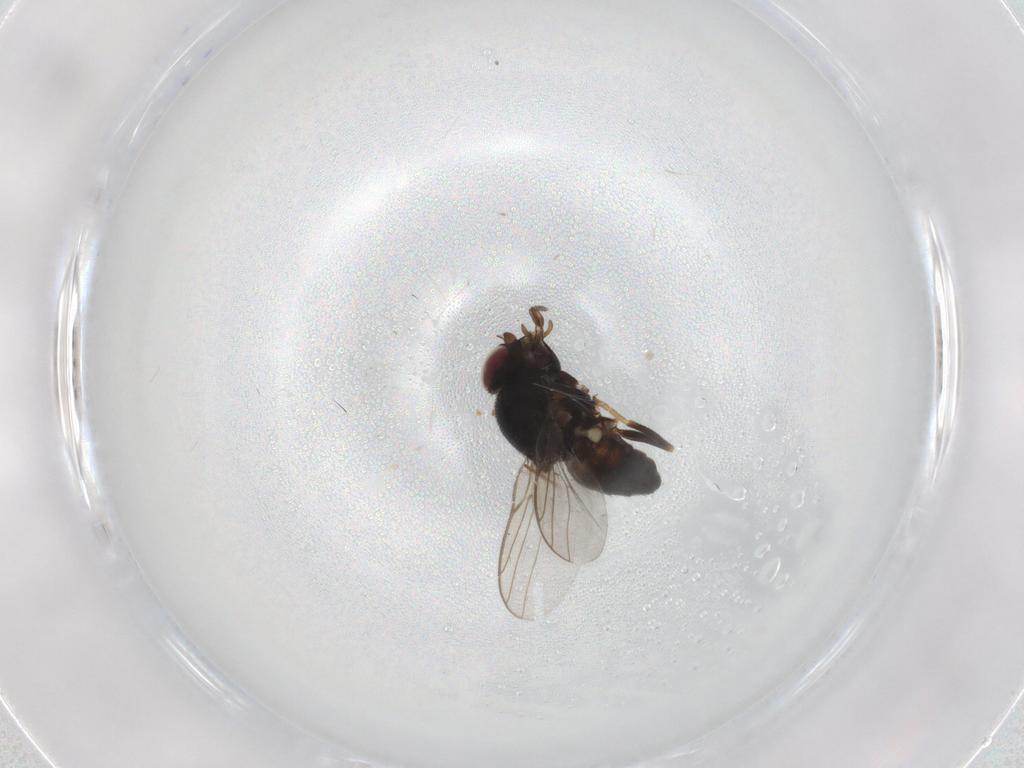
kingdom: Animalia
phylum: Arthropoda
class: Insecta
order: Diptera
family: Chloropidae
